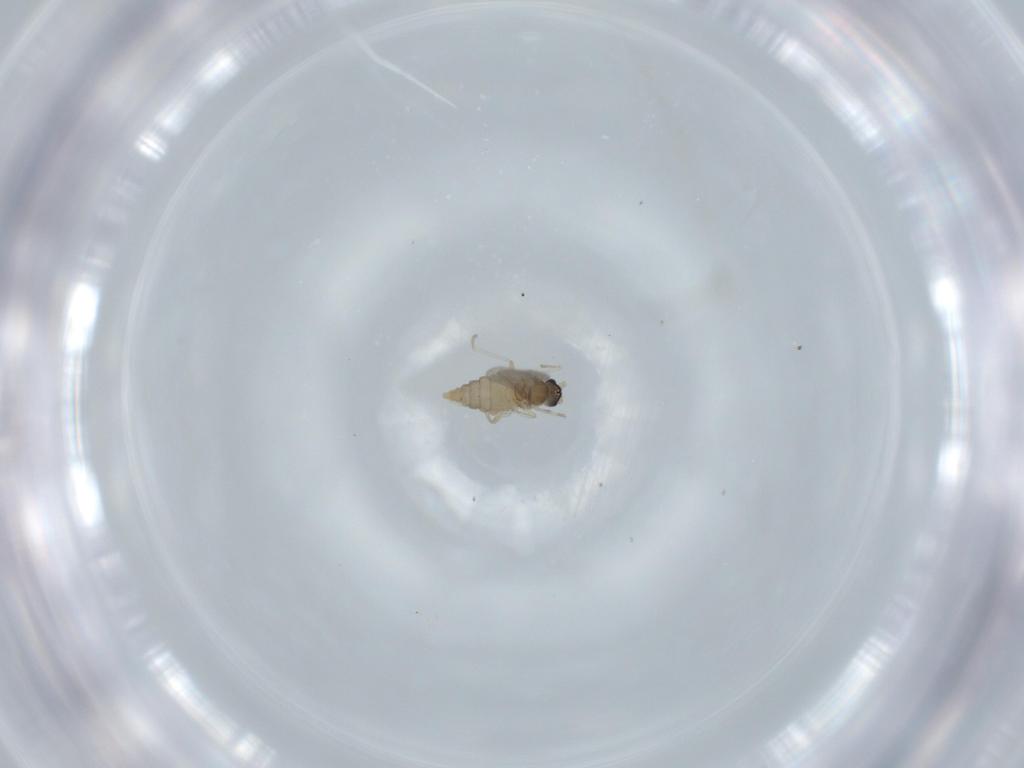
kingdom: Animalia
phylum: Arthropoda
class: Insecta
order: Diptera
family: Cecidomyiidae
